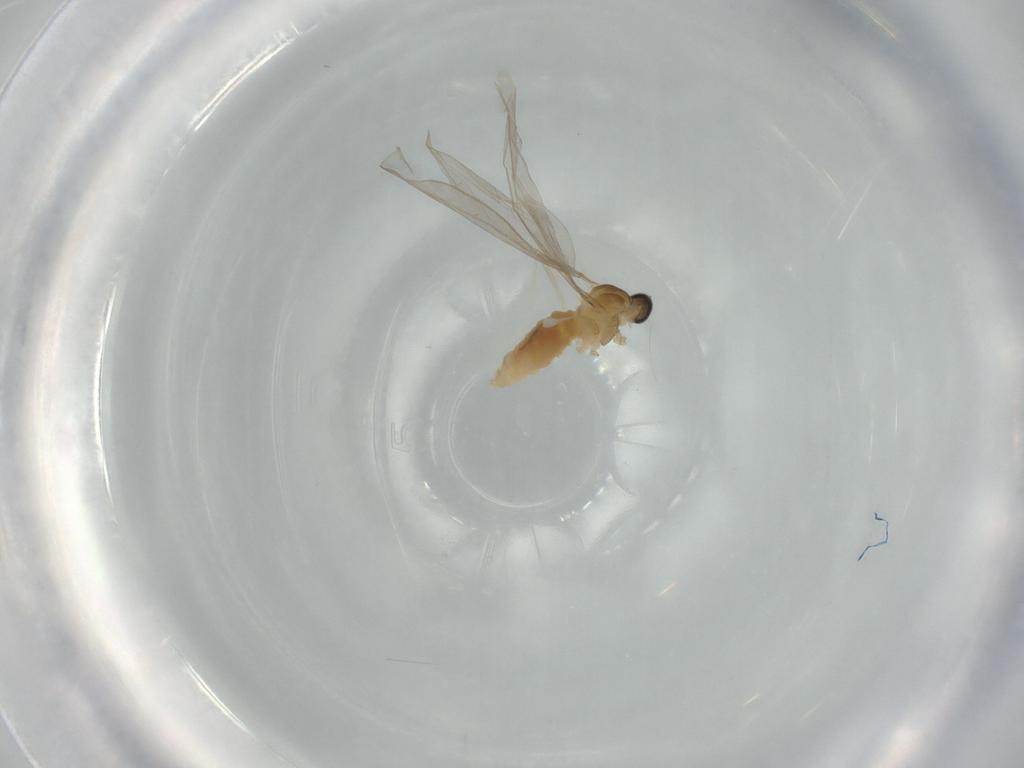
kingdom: Animalia
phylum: Arthropoda
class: Insecta
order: Diptera
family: Cecidomyiidae
